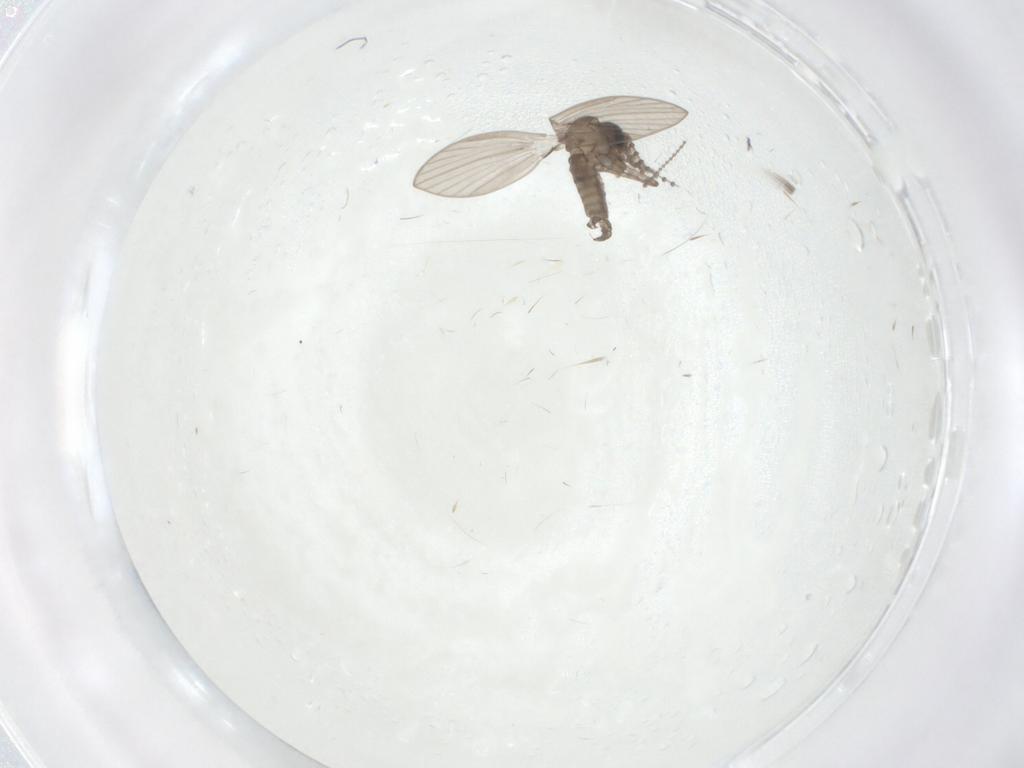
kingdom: Animalia
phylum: Arthropoda
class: Insecta
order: Diptera
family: Psychodidae
